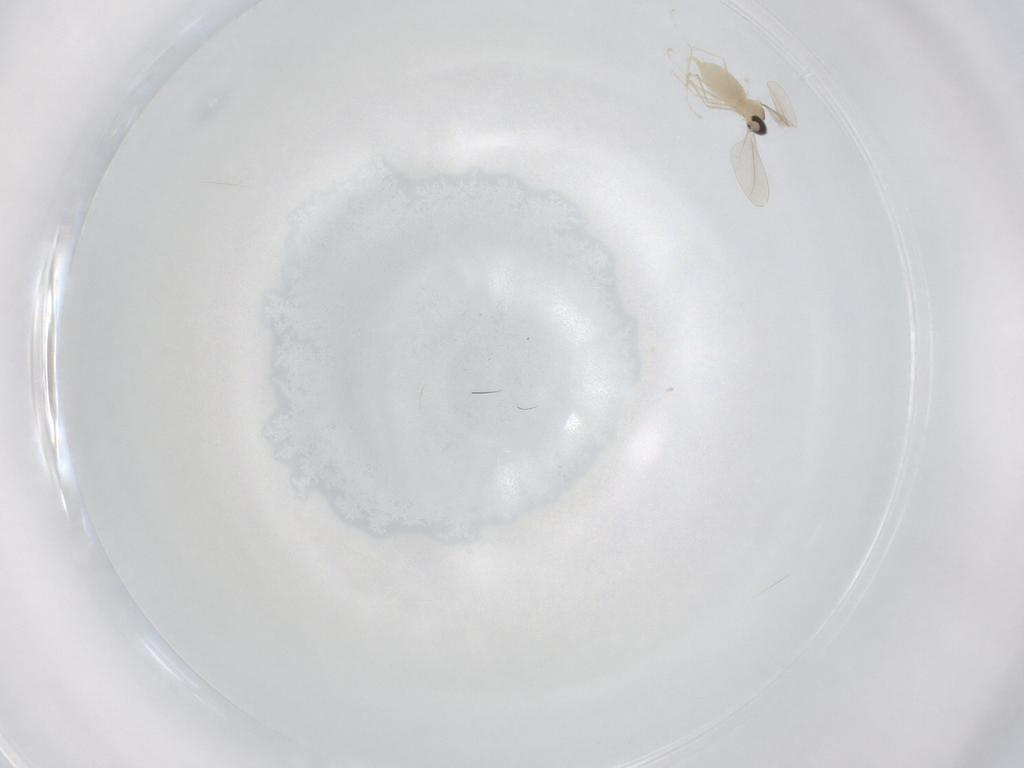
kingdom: Animalia
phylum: Arthropoda
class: Insecta
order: Diptera
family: Cecidomyiidae
